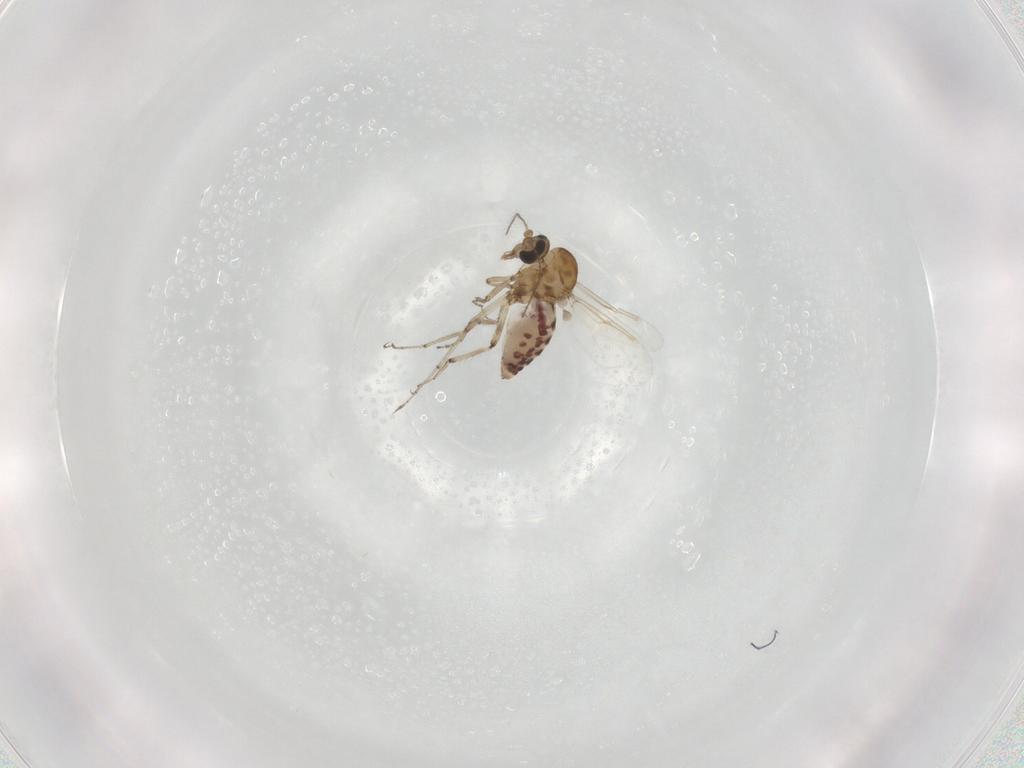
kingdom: Animalia
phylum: Arthropoda
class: Insecta
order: Diptera
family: Ceratopogonidae
